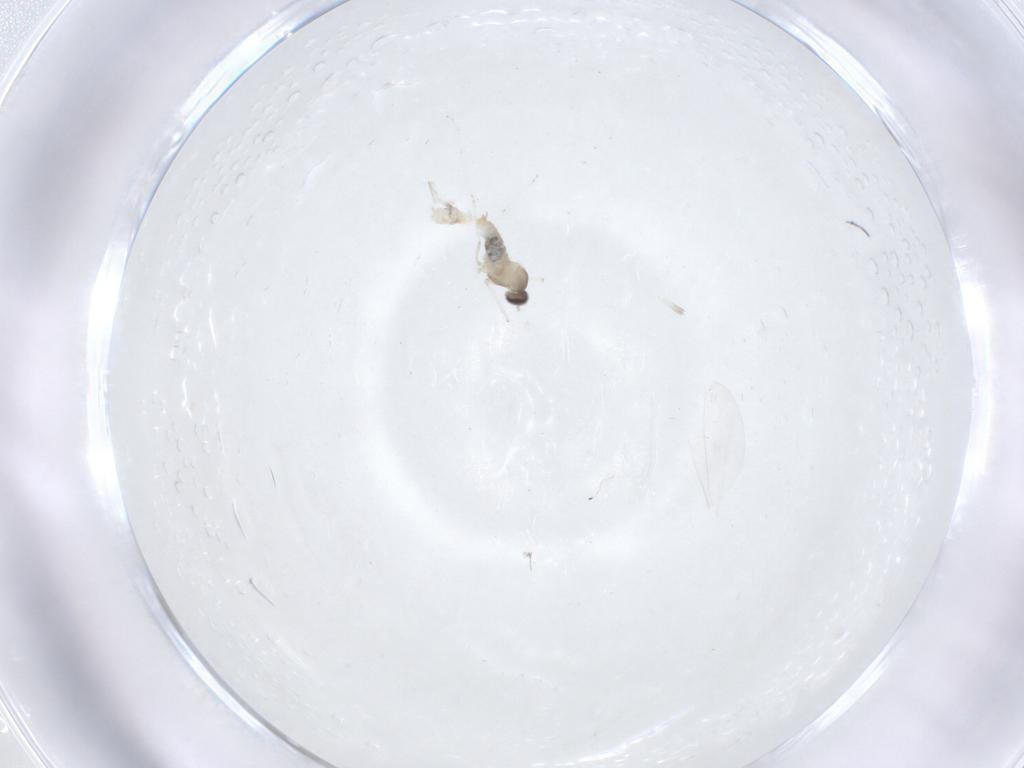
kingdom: Animalia
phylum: Arthropoda
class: Insecta
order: Diptera
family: Cecidomyiidae
